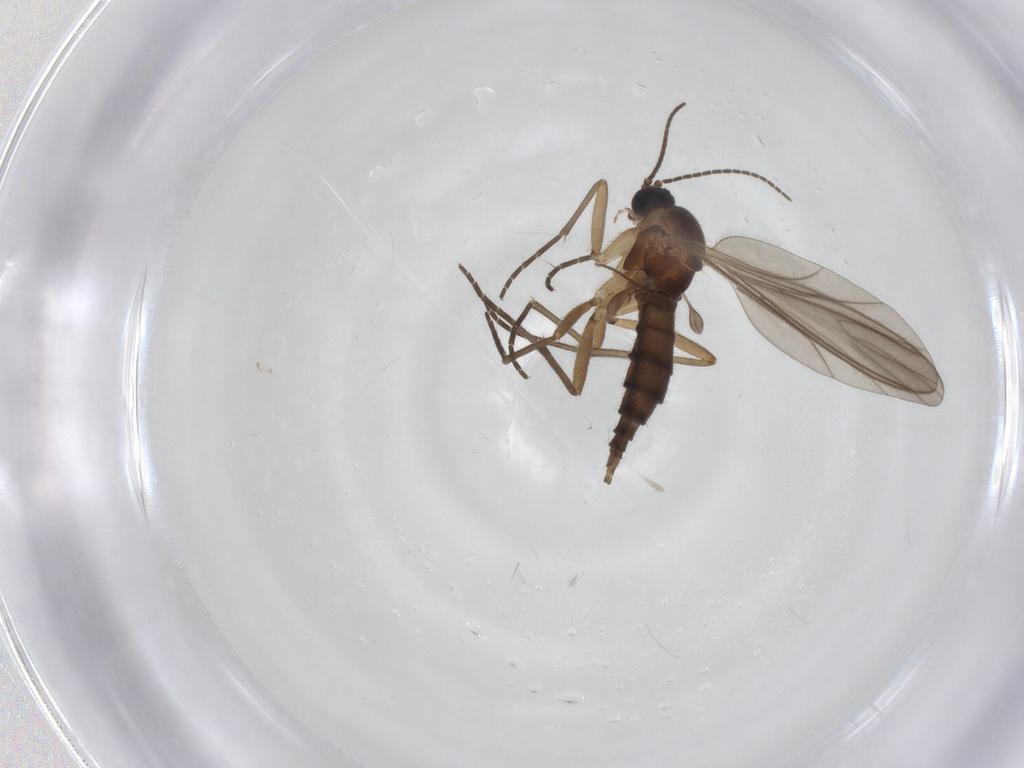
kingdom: Animalia
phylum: Arthropoda
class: Insecta
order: Diptera
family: Sciaridae
